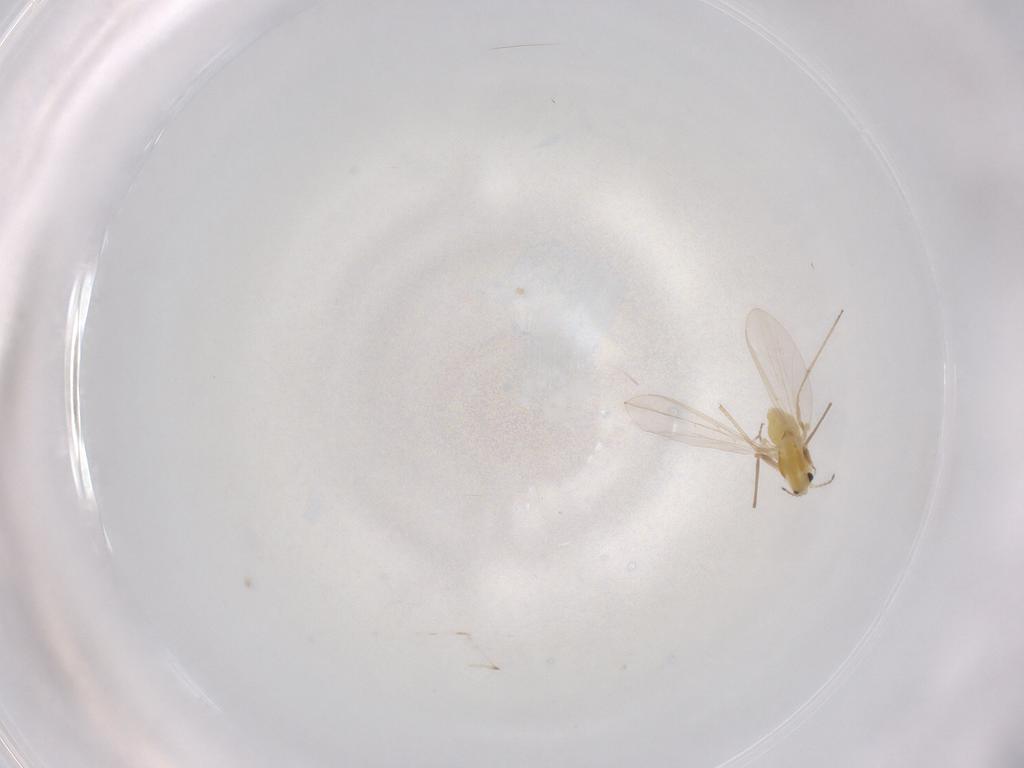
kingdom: Animalia
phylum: Arthropoda
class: Insecta
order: Diptera
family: Chironomidae
